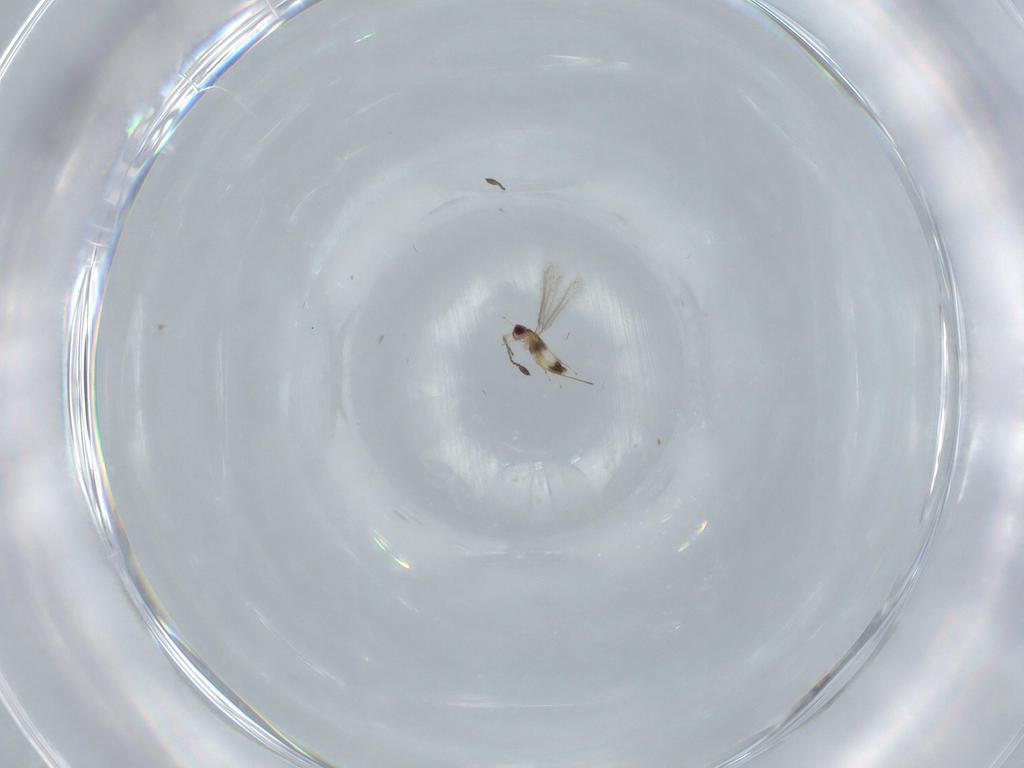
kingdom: Animalia
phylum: Arthropoda
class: Insecta
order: Hymenoptera
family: Mymaridae
